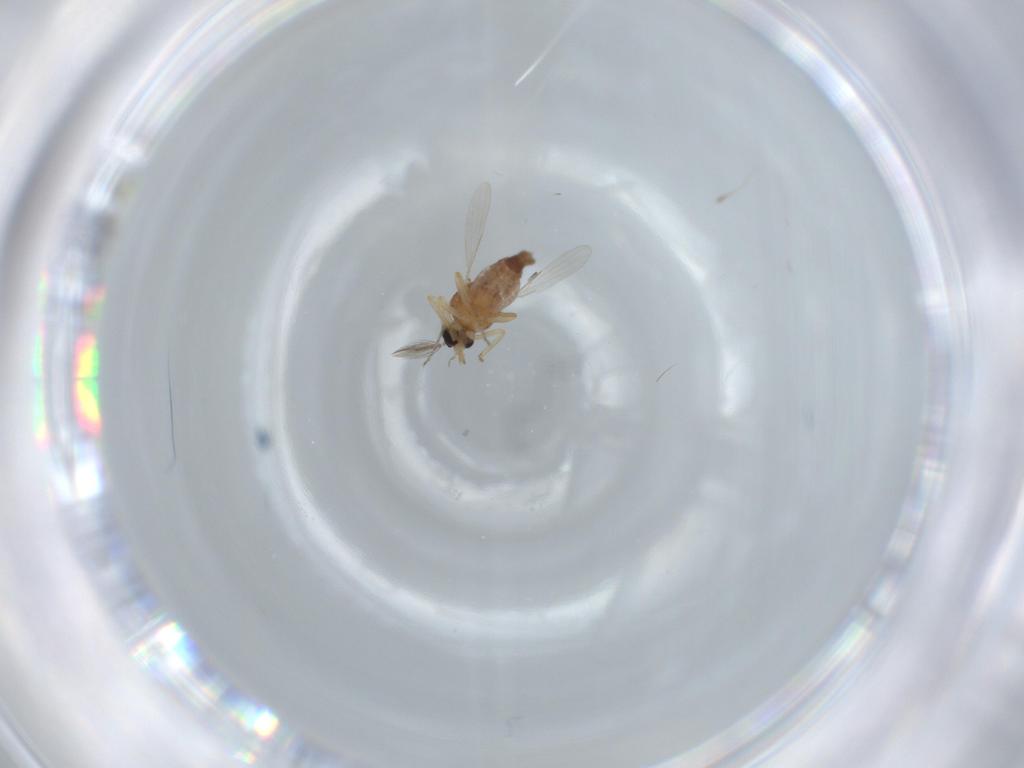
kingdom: Animalia
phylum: Arthropoda
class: Insecta
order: Diptera
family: Ceratopogonidae
